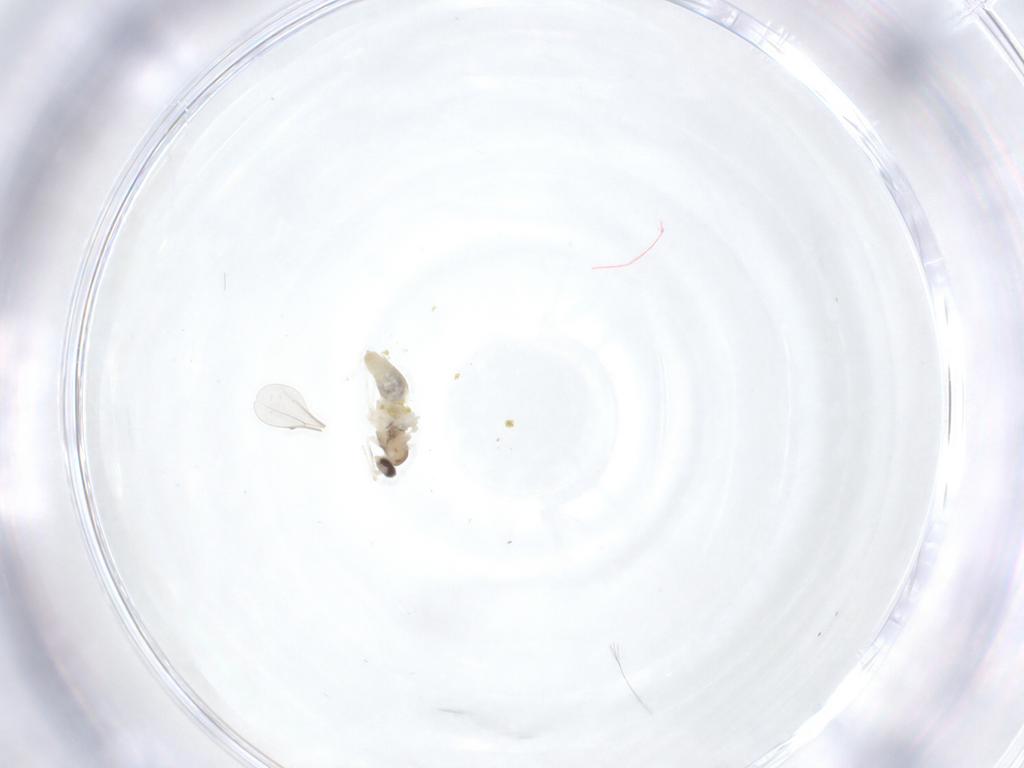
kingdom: Animalia
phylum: Arthropoda
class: Insecta
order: Diptera
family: Cecidomyiidae
